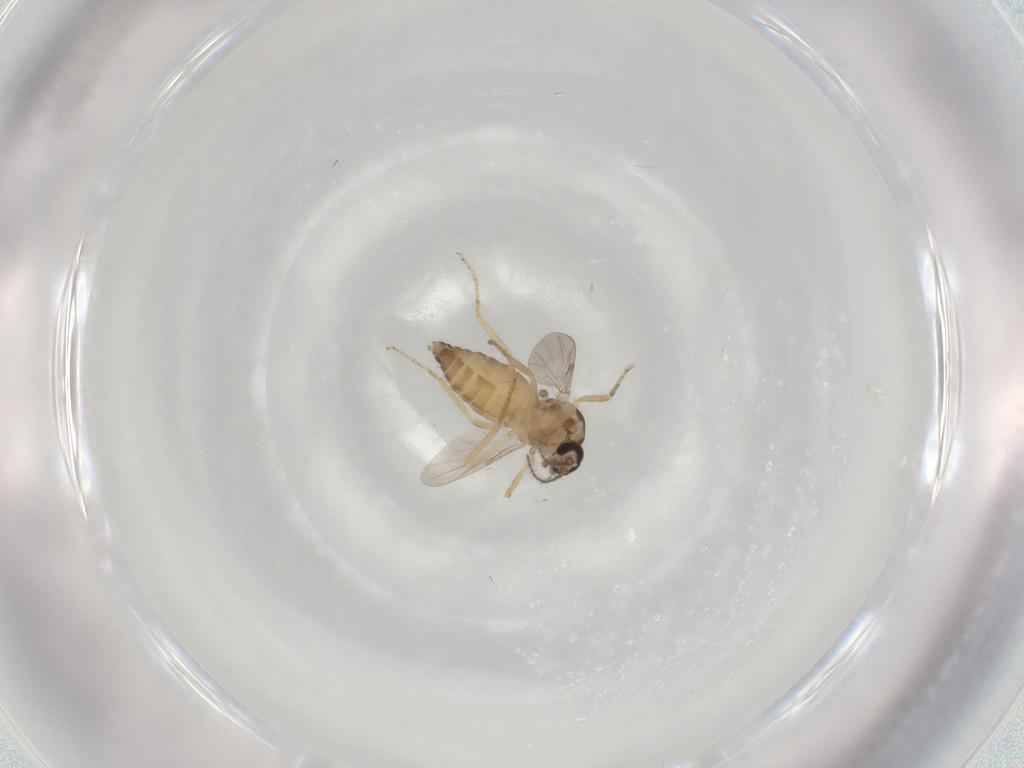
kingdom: Animalia
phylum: Arthropoda
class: Insecta
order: Diptera
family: Ceratopogonidae
